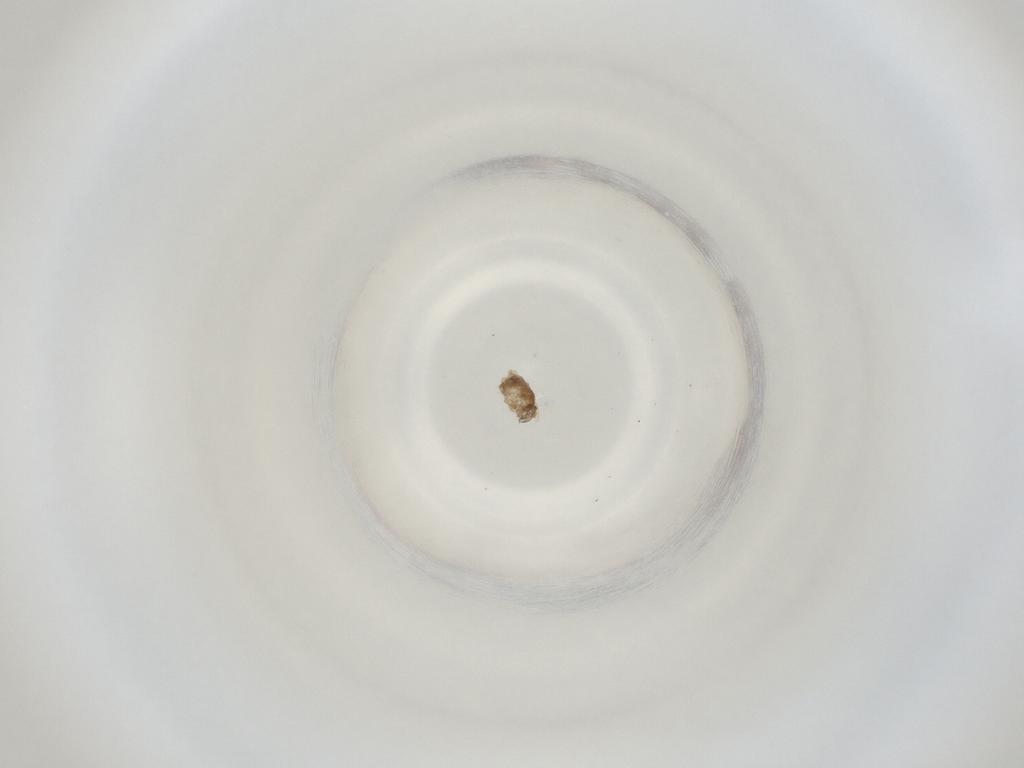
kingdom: Animalia
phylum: Arthropoda
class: Insecta
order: Diptera
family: Cecidomyiidae
